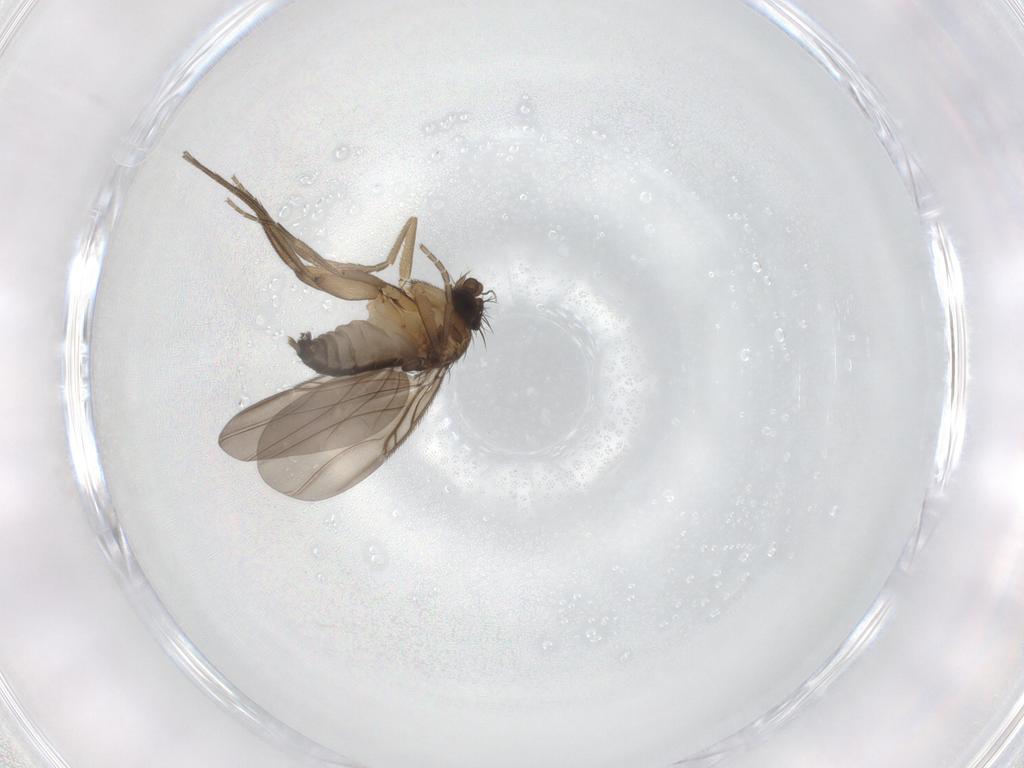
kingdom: Animalia
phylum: Arthropoda
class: Insecta
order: Diptera
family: Phoridae
